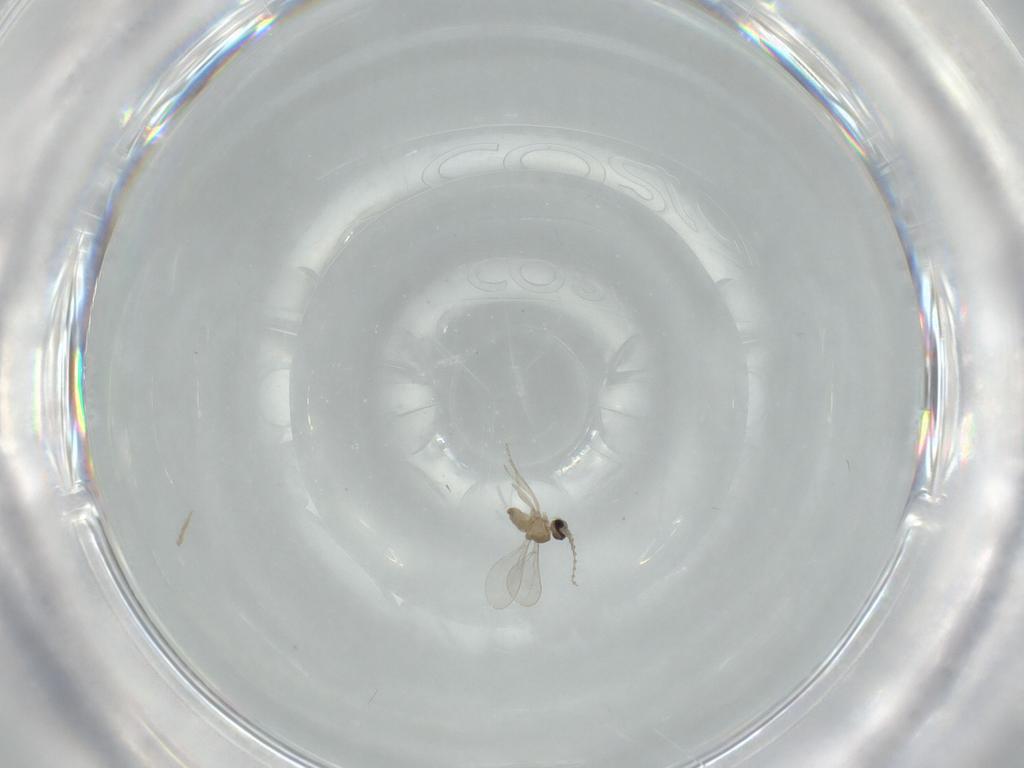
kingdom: Animalia
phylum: Arthropoda
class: Insecta
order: Diptera
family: Cecidomyiidae
